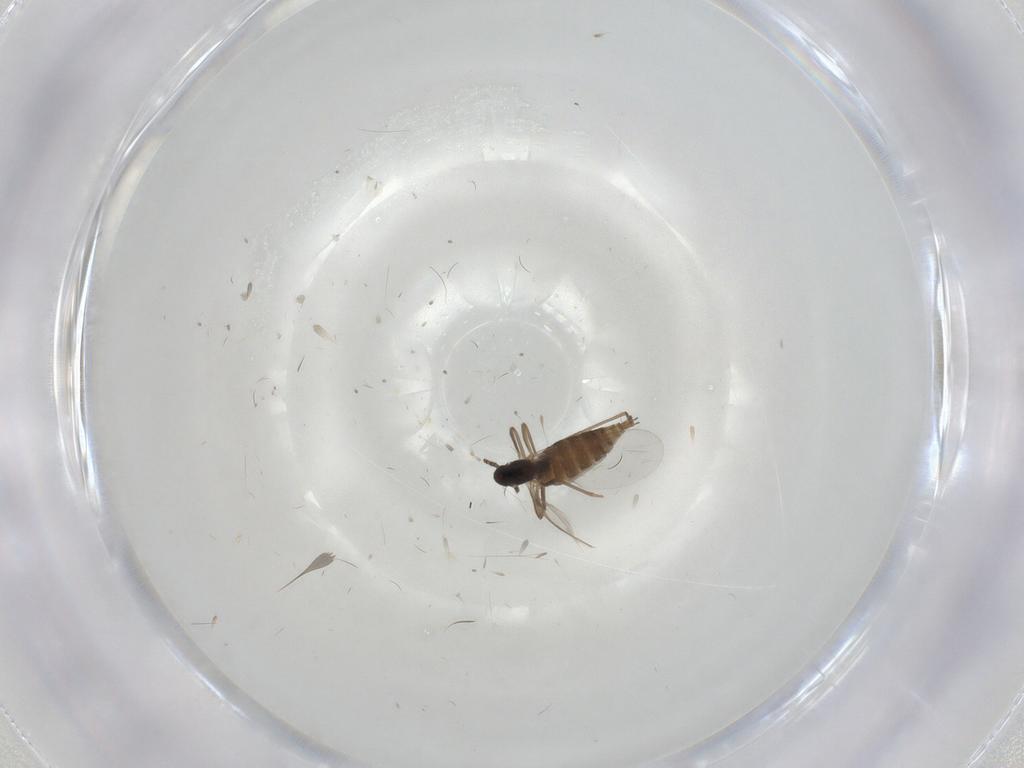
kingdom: Animalia
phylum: Arthropoda
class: Insecta
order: Diptera
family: Cecidomyiidae
